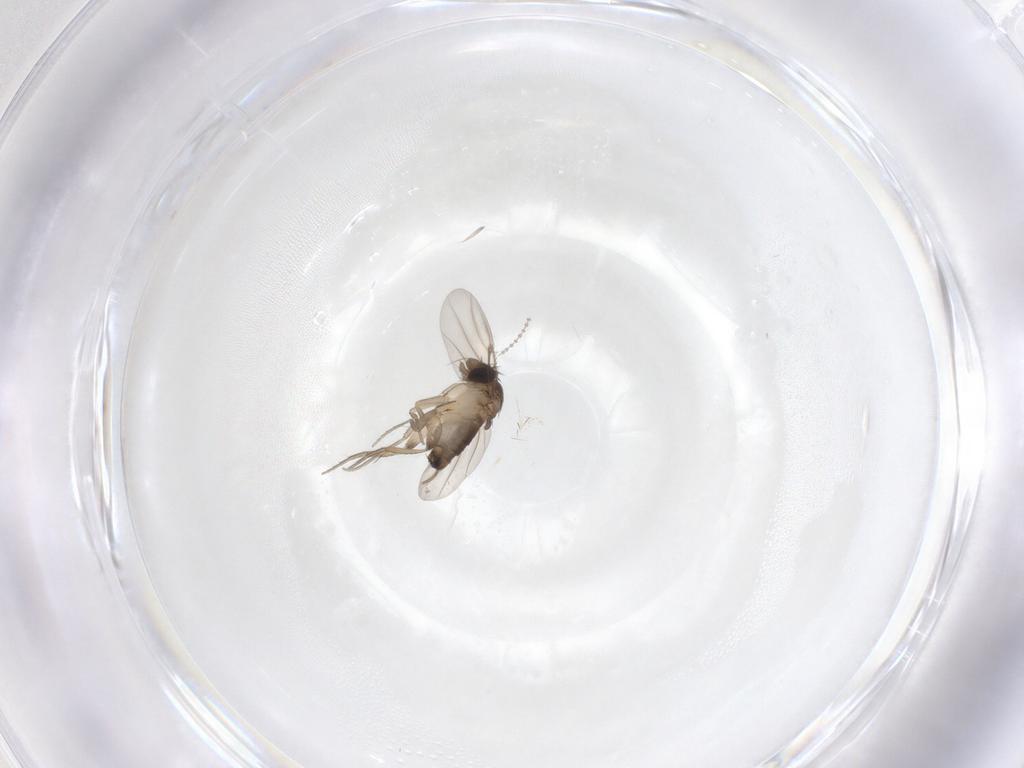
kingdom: Animalia
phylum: Arthropoda
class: Insecta
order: Diptera
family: Phoridae
